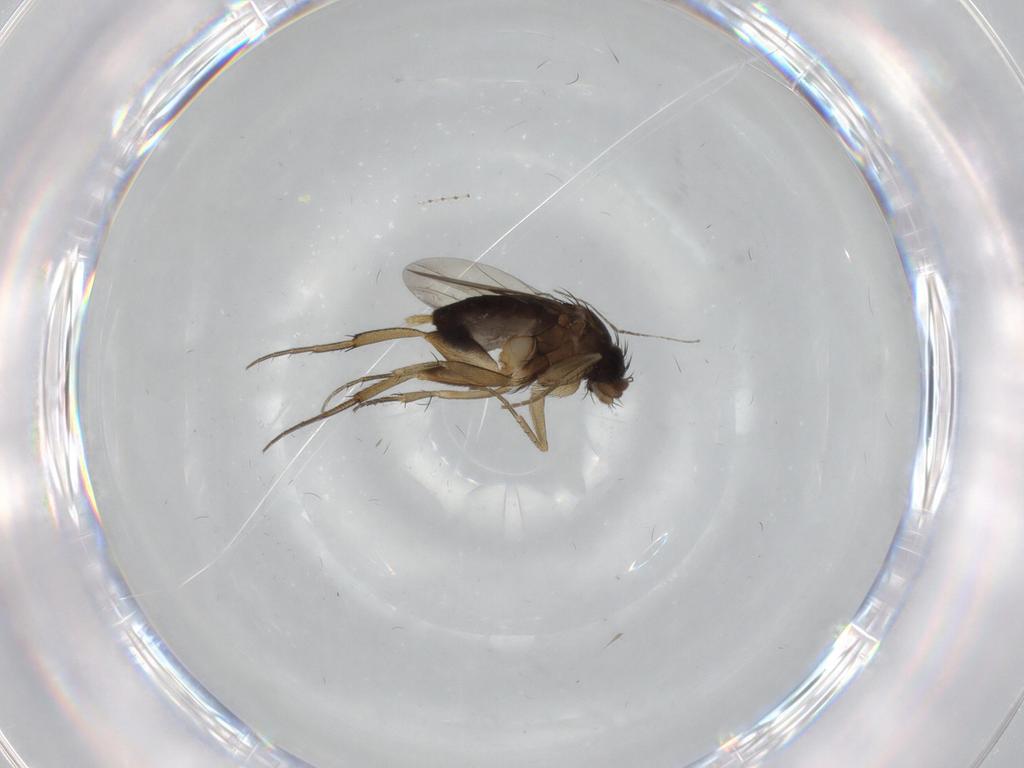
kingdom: Animalia
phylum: Arthropoda
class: Insecta
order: Diptera
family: Phoridae
